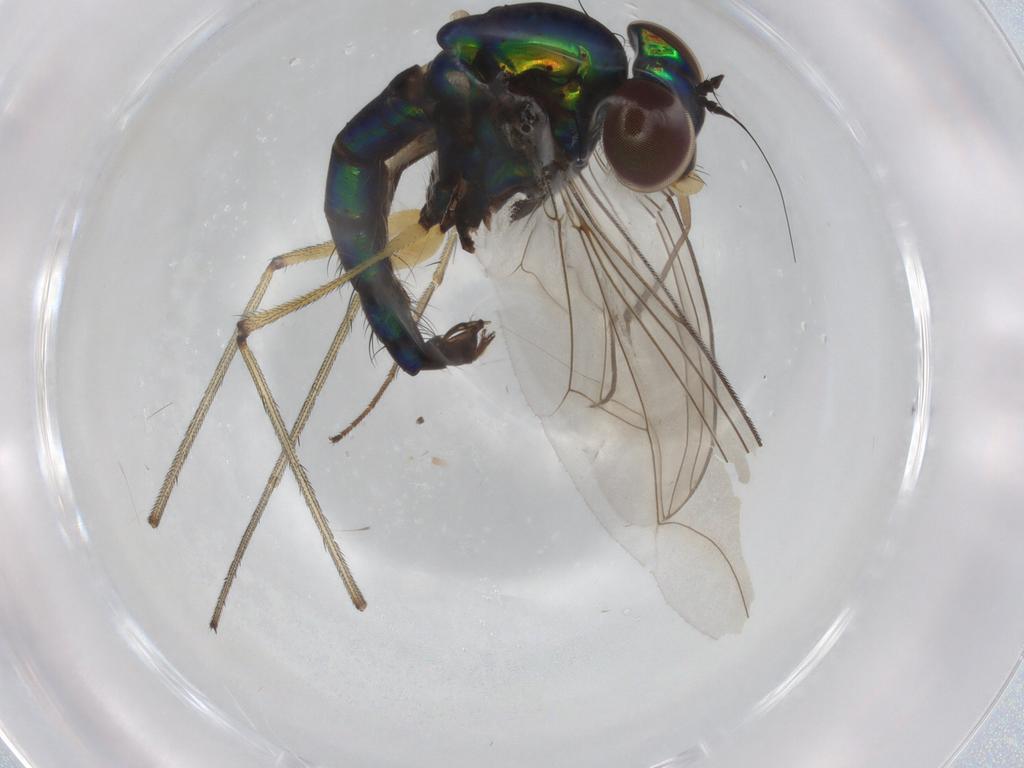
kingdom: Animalia
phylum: Arthropoda
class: Insecta
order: Diptera
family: Dolichopodidae
